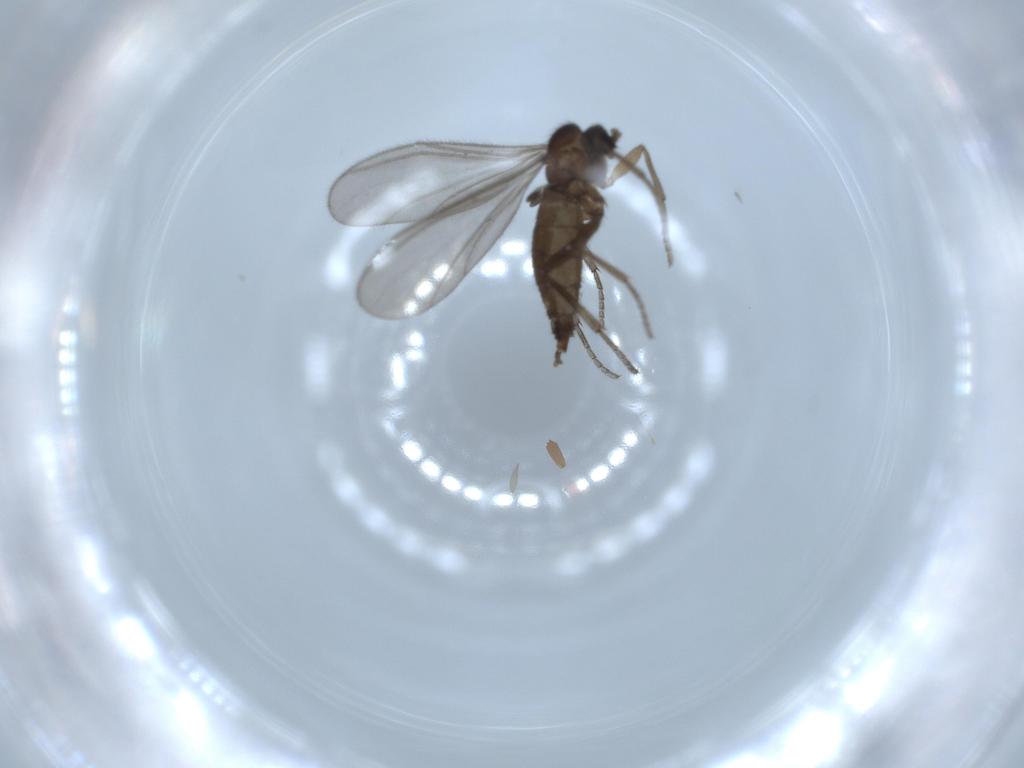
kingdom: Animalia
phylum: Arthropoda
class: Insecta
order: Diptera
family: Sciaridae
